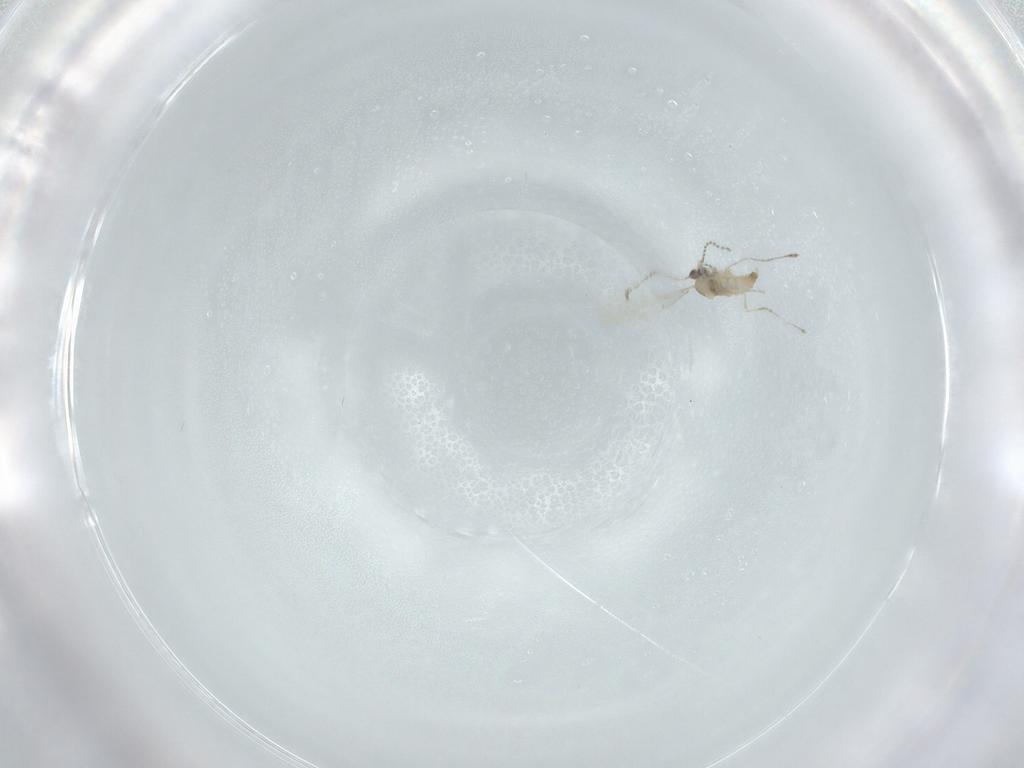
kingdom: Animalia
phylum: Arthropoda
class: Insecta
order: Diptera
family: Cecidomyiidae
